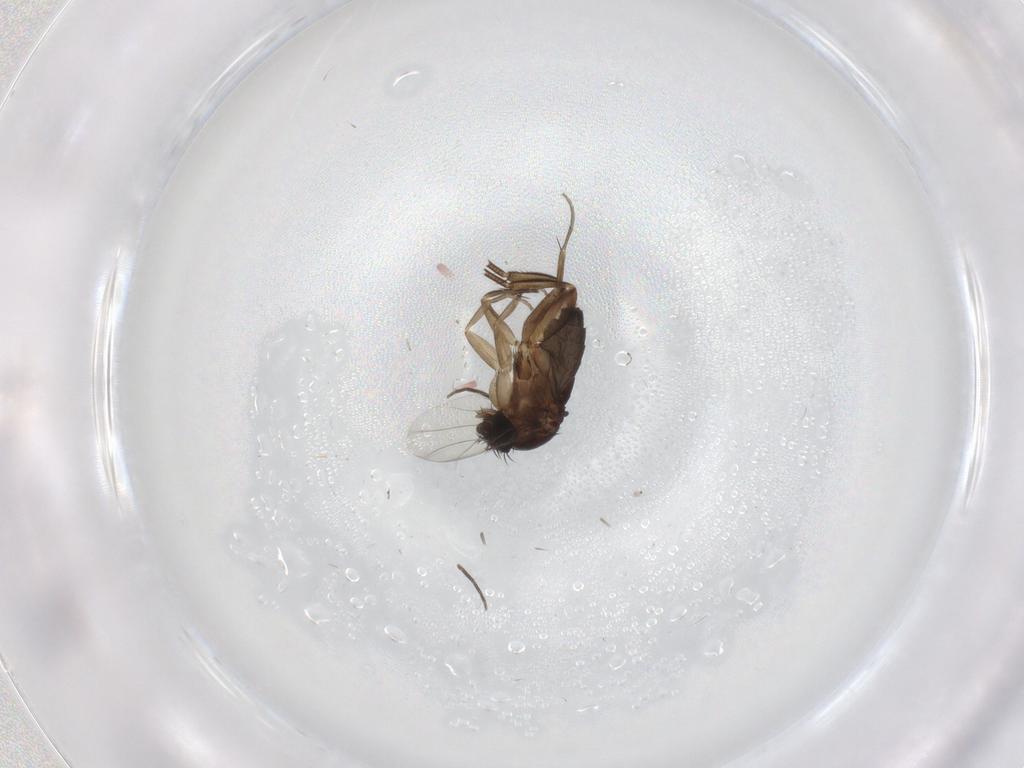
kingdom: Animalia
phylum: Arthropoda
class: Insecta
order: Diptera
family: Phoridae
